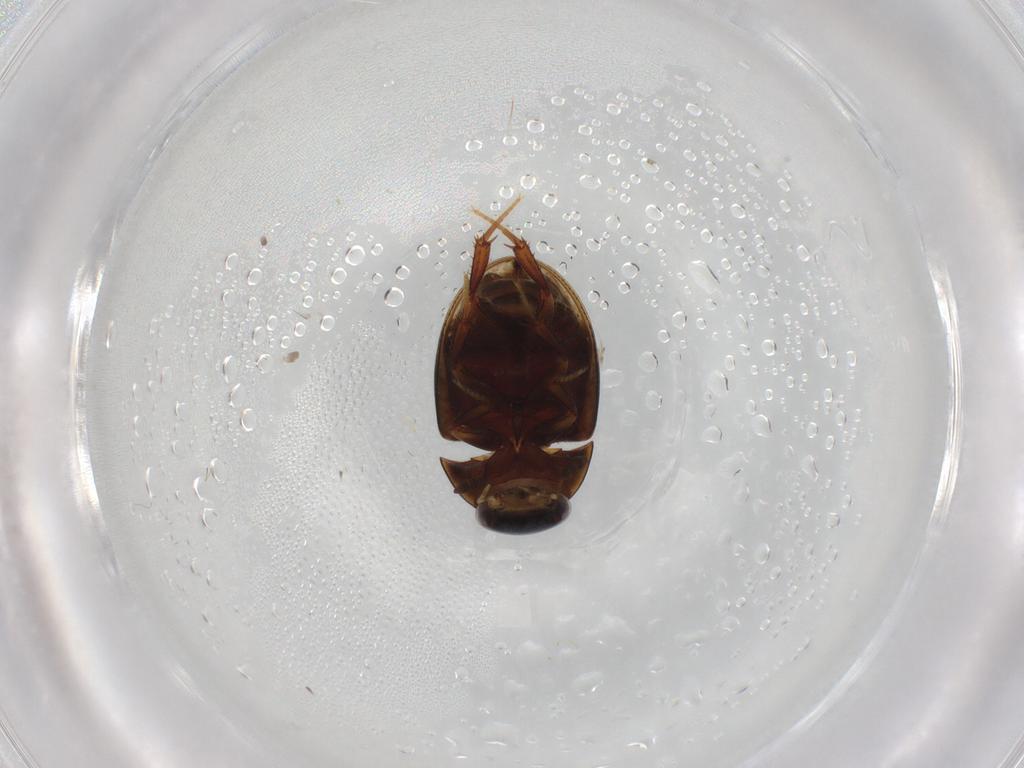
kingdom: Animalia
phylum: Arthropoda
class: Insecta
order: Coleoptera
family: Hydrophilidae
